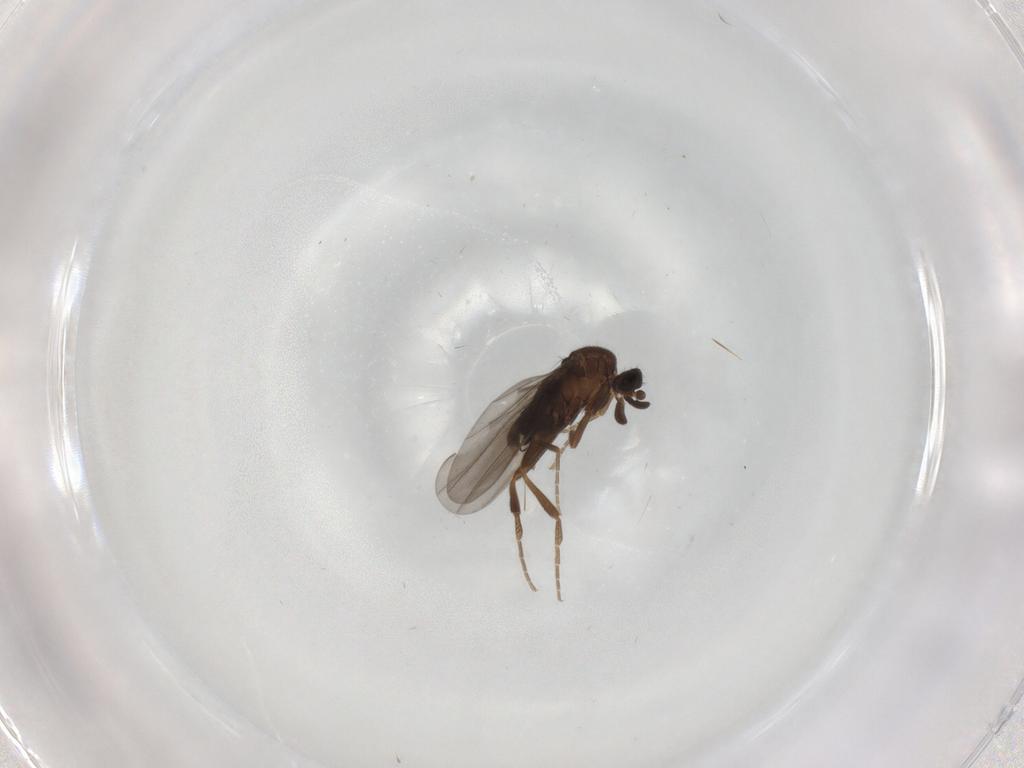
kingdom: Animalia
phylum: Arthropoda
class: Insecta
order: Diptera
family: Phoridae
